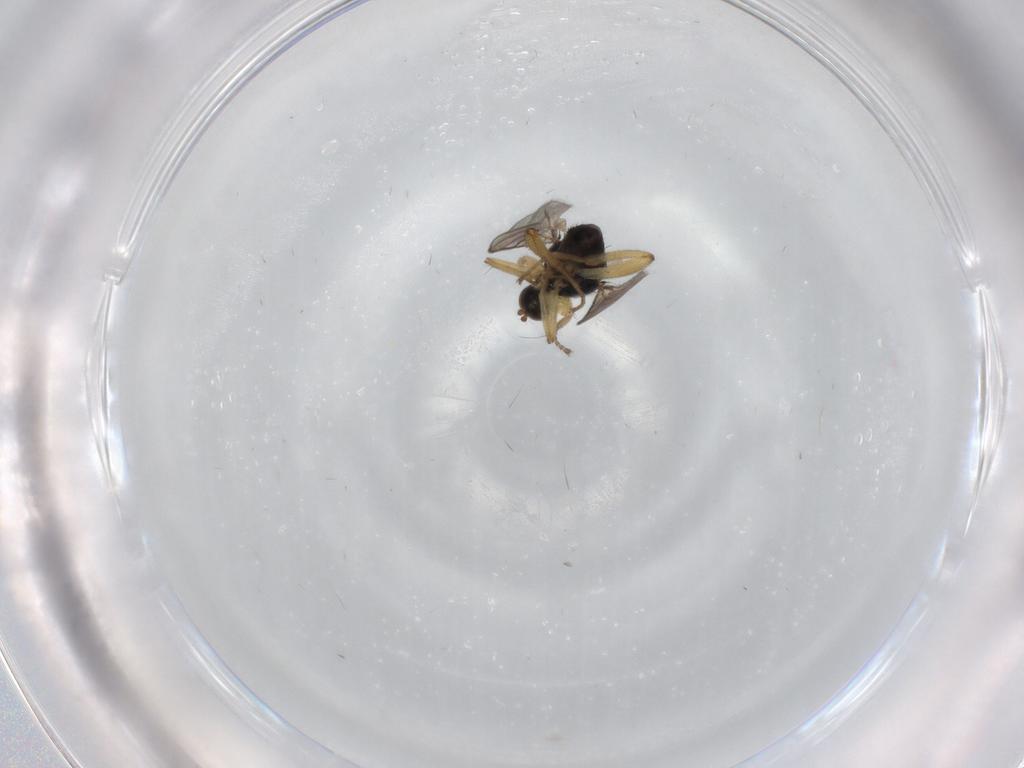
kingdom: Animalia
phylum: Arthropoda
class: Insecta
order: Diptera
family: Hybotidae
